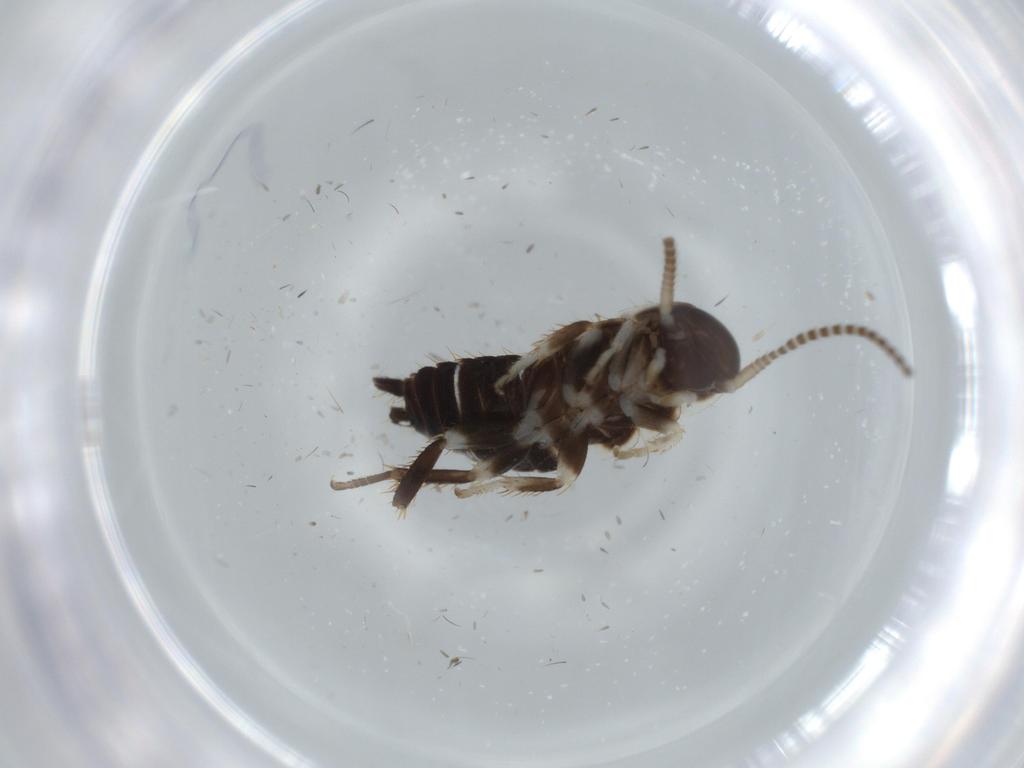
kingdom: Animalia
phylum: Arthropoda
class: Insecta
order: Blattodea
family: Ectobiidae
